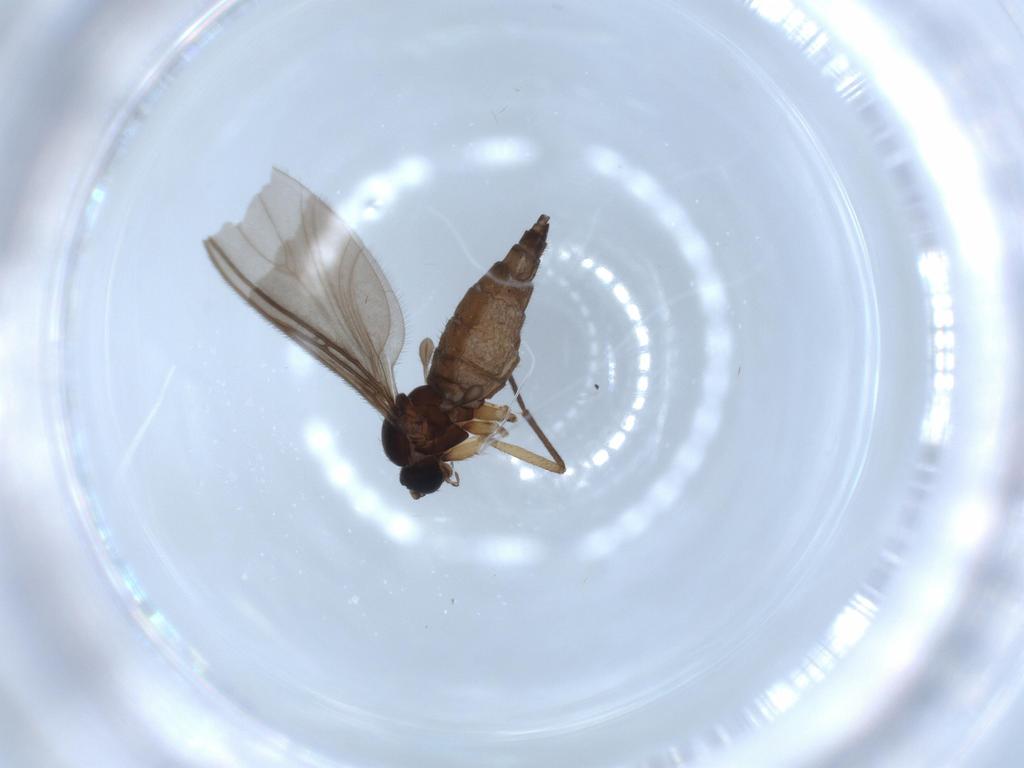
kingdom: Animalia
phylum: Arthropoda
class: Insecta
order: Diptera
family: Sciaridae
